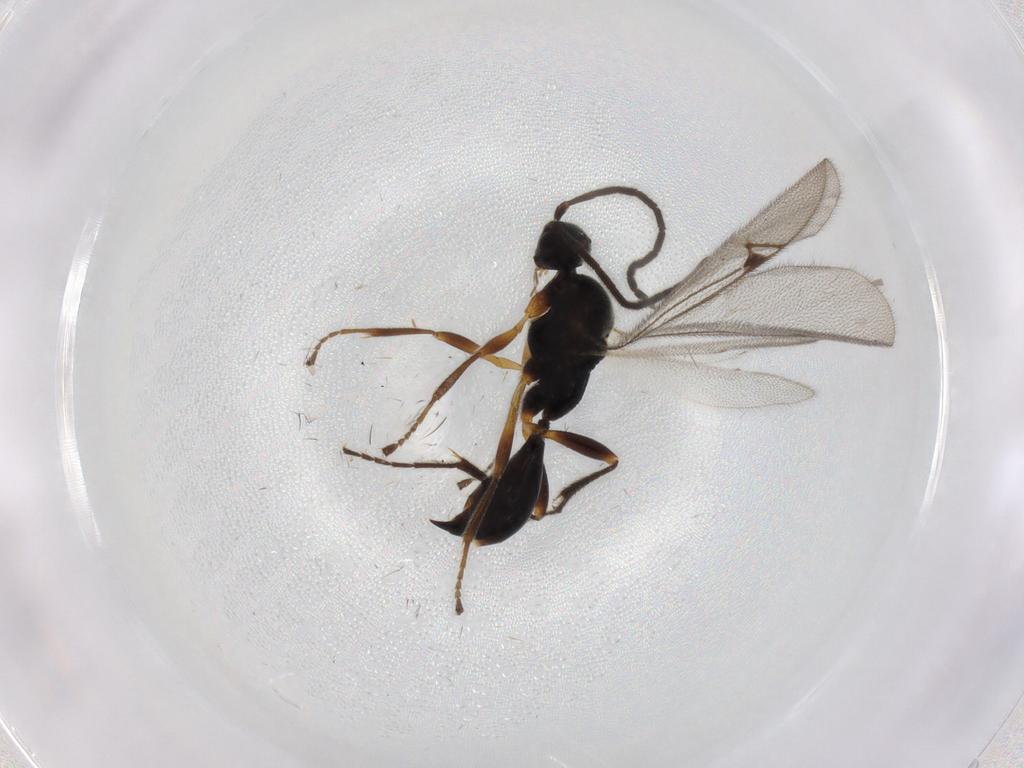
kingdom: Animalia
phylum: Arthropoda
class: Insecta
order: Hymenoptera
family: Proctotrupidae
